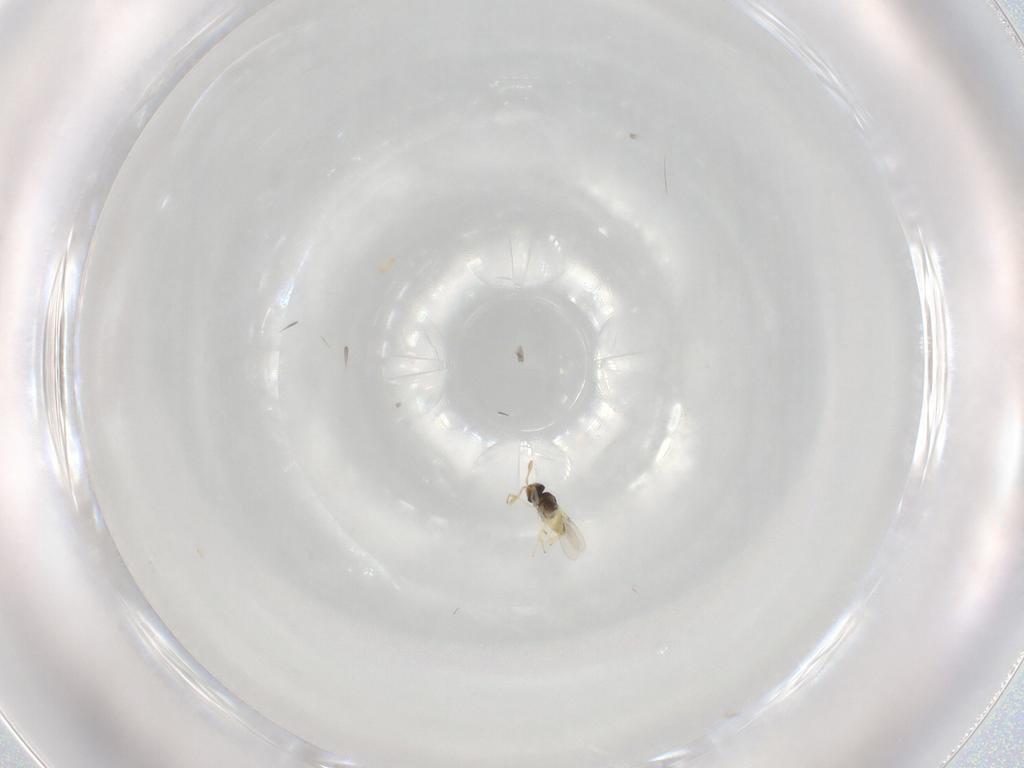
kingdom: Animalia
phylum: Arthropoda
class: Insecta
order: Hymenoptera
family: Encyrtidae
